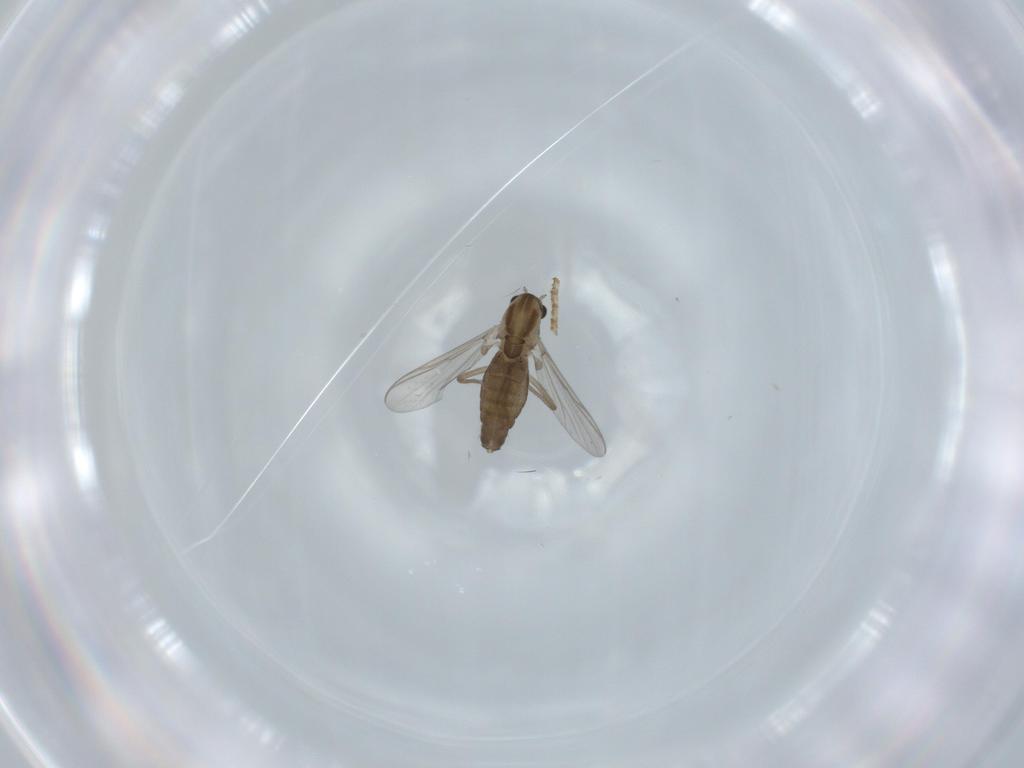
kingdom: Animalia
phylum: Arthropoda
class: Insecta
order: Diptera
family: Chironomidae
